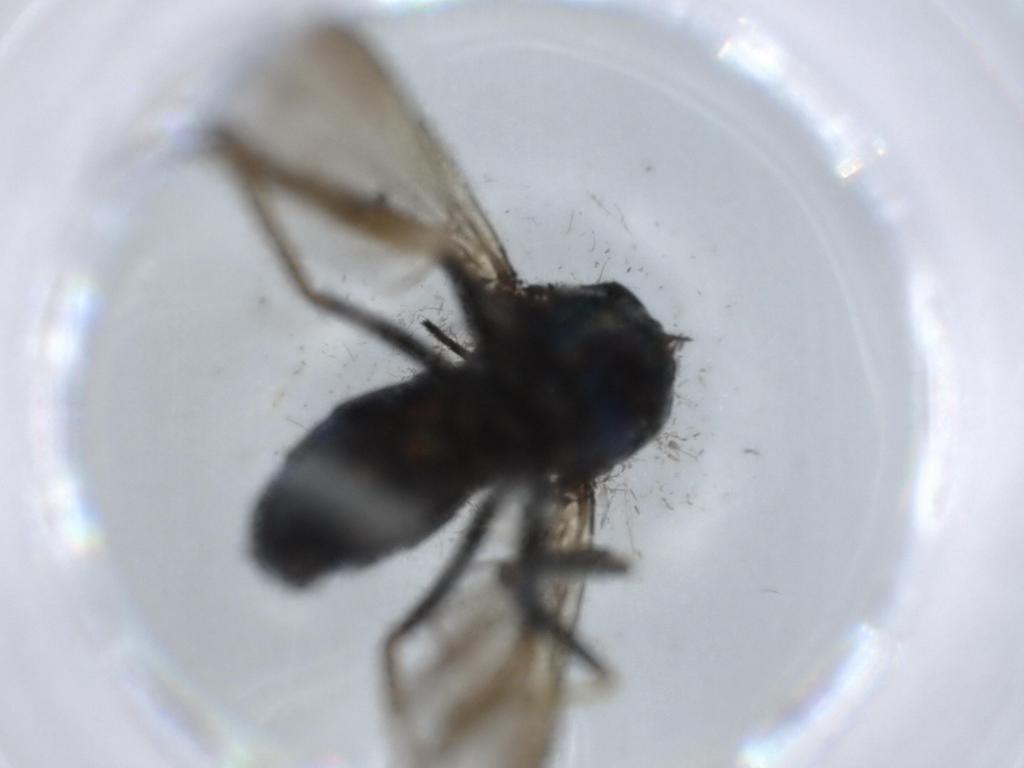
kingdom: Animalia
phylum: Arthropoda
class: Insecta
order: Diptera
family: Dolichopodidae
